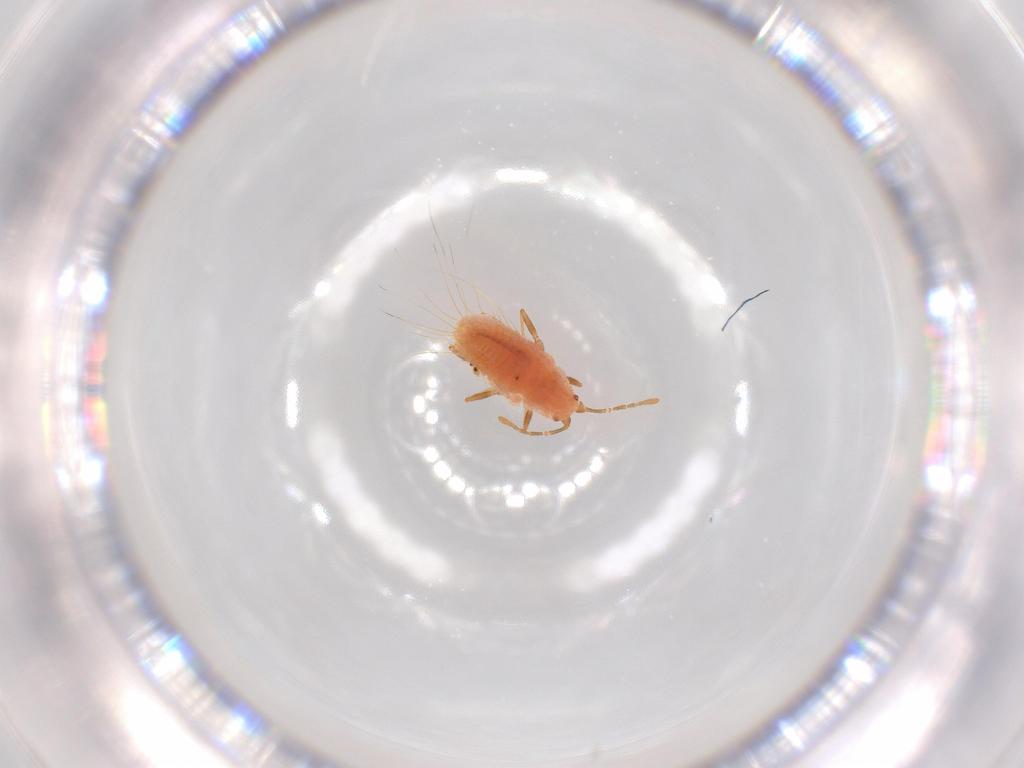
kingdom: Animalia
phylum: Arthropoda
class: Insecta
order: Hemiptera
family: Coccoidea_incertae_sedis
